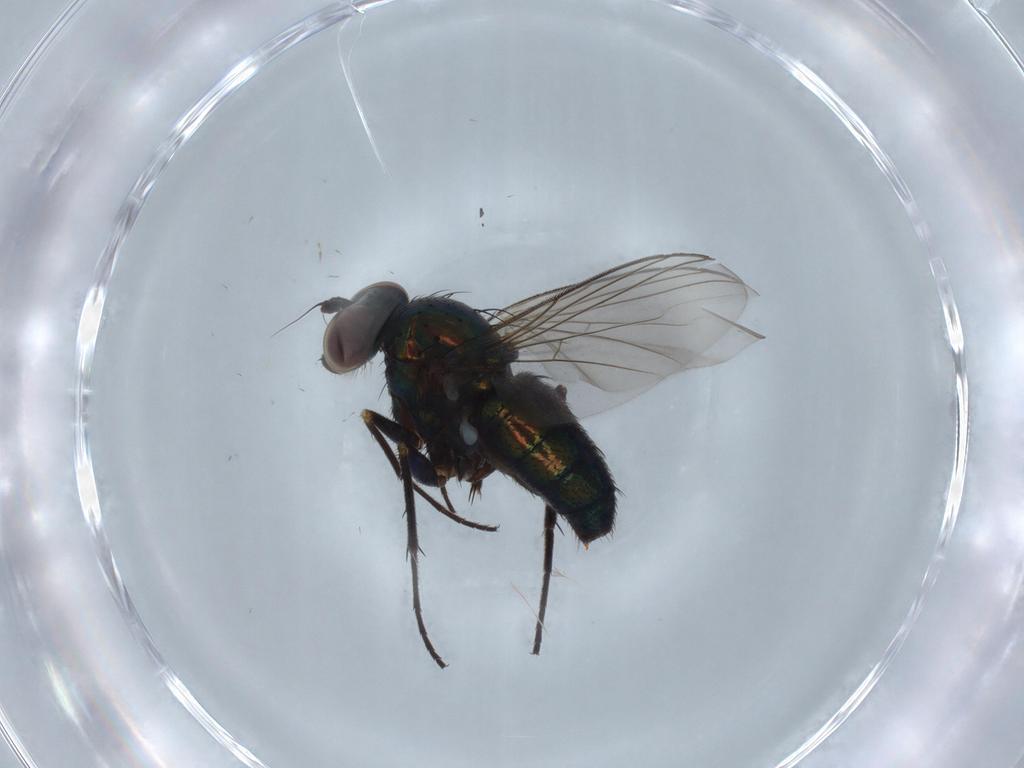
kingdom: Animalia
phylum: Arthropoda
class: Insecta
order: Diptera
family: Dolichopodidae
